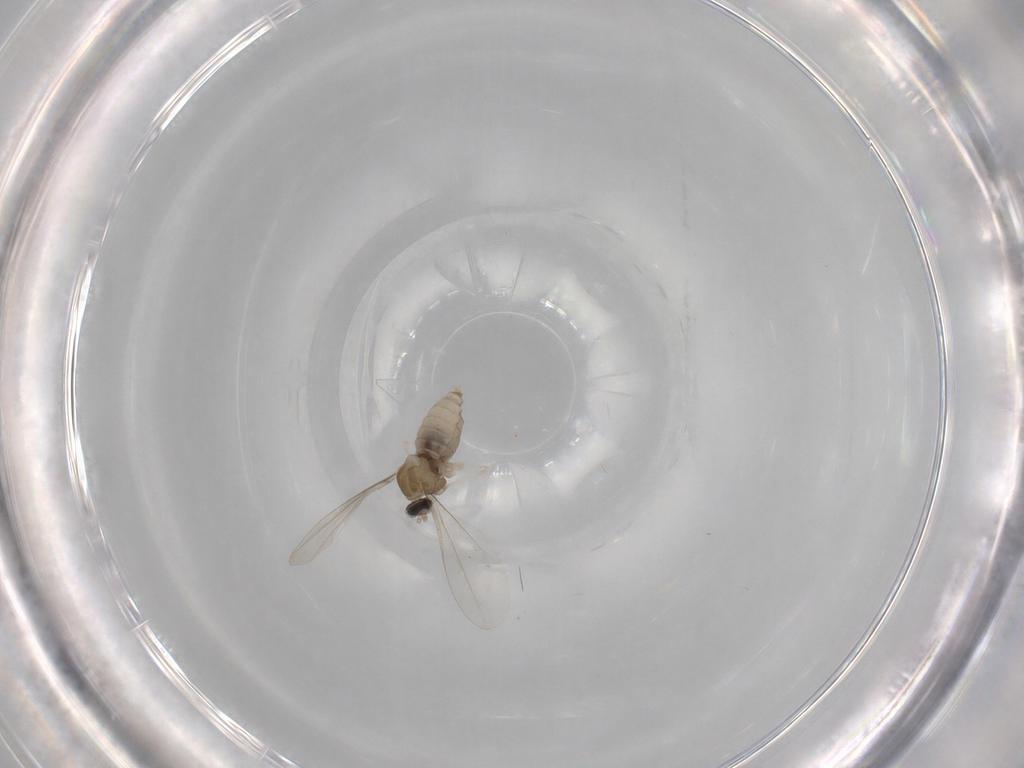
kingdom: Animalia
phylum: Arthropoda
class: Insecta
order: Diptera
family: Cecidomyiidae
